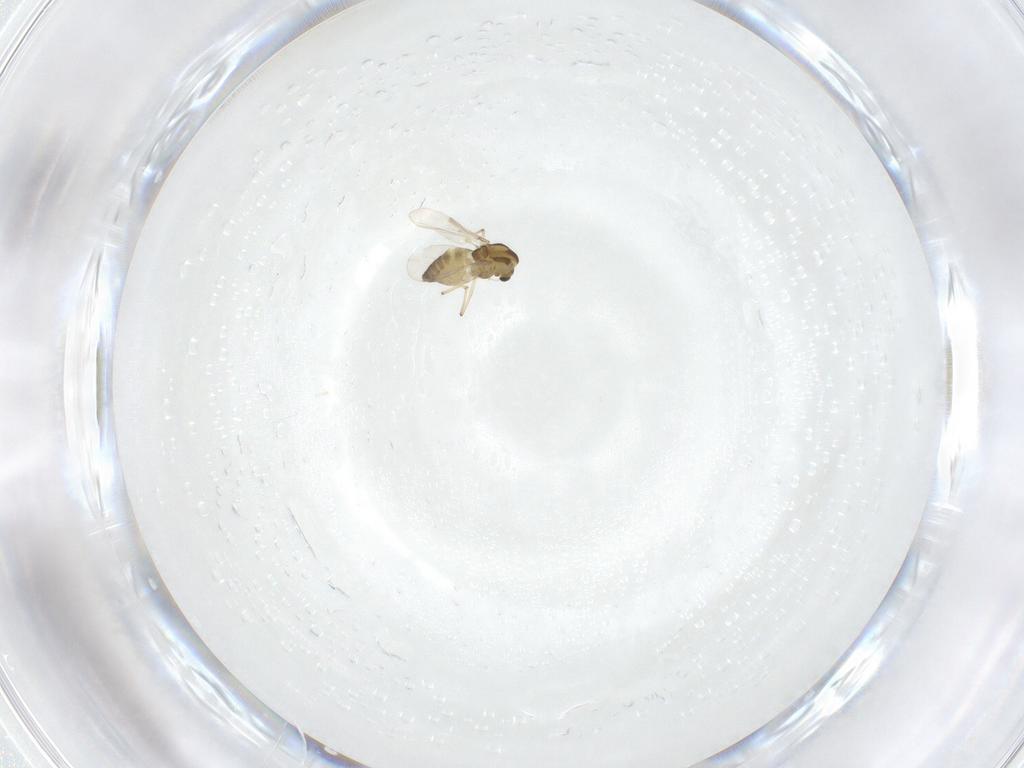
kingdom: Animalia
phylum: Arthropoda
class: Insecta
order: Diptera
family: Chironomidae
